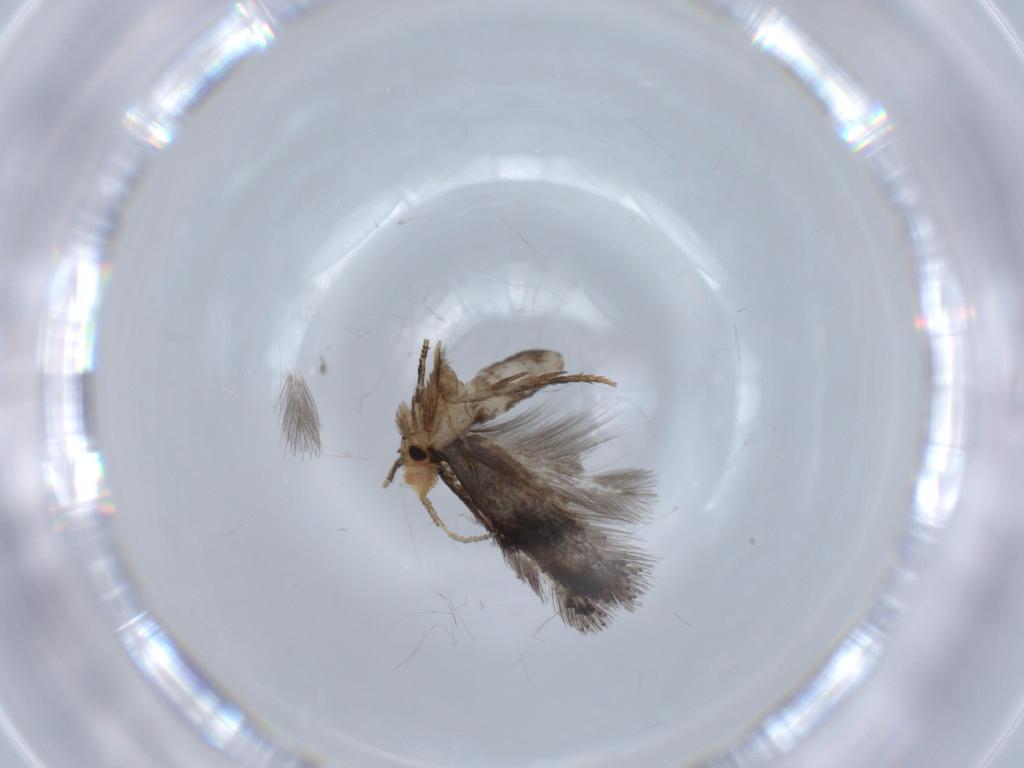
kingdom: Animalia
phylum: Arthropoda
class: Insecta
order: Lepidoptera
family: Nepticulidae
